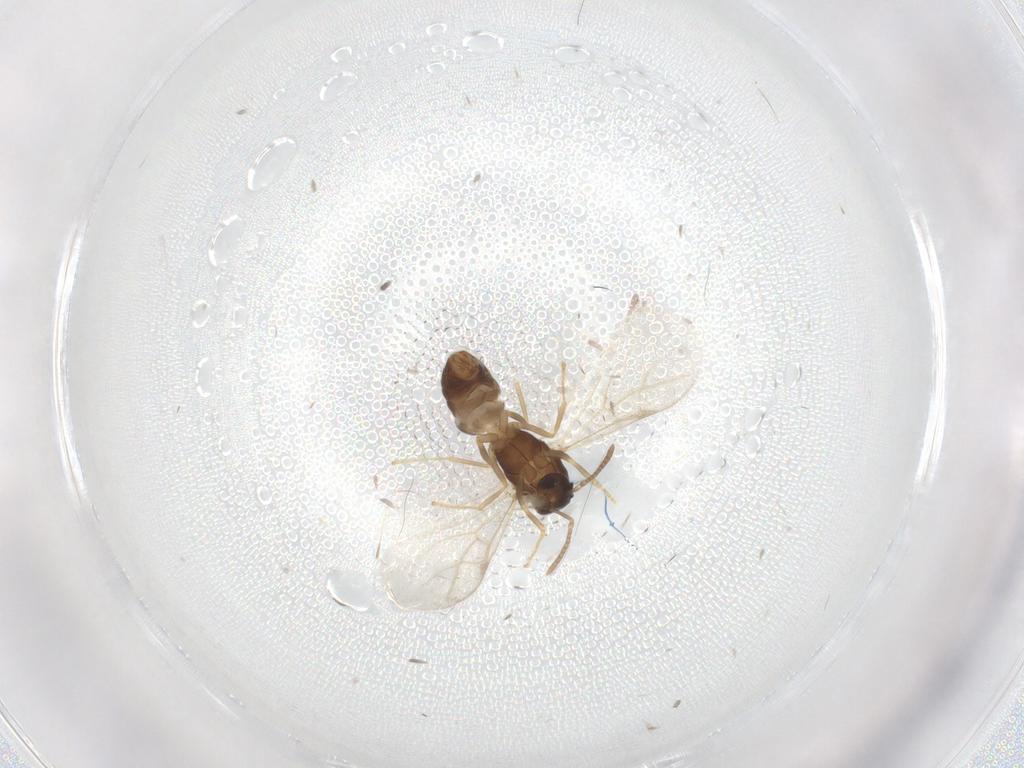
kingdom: Animalia
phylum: Arthropoda
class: Insecta
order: Hymenoptera
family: Formicidae
